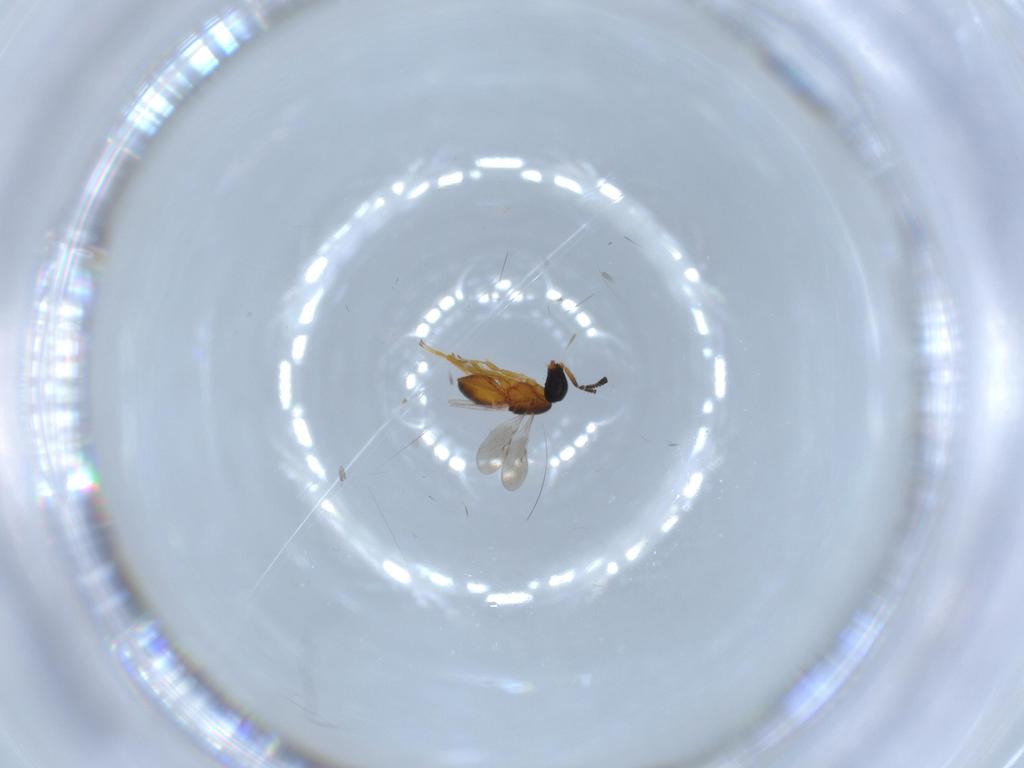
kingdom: Animalia
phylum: Arthropoda
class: Insecta
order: Hymenoptera
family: Scelionidae
